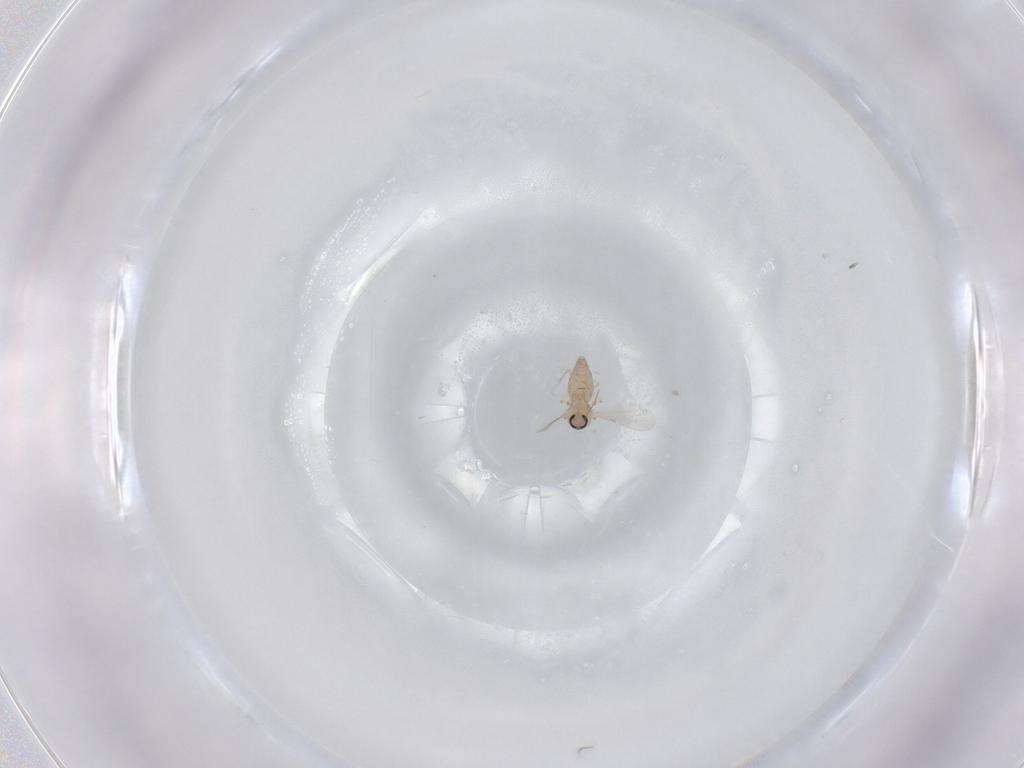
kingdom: Animalia
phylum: Arthropoda
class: Insecta
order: Diptera
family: Ceratopogonidae
